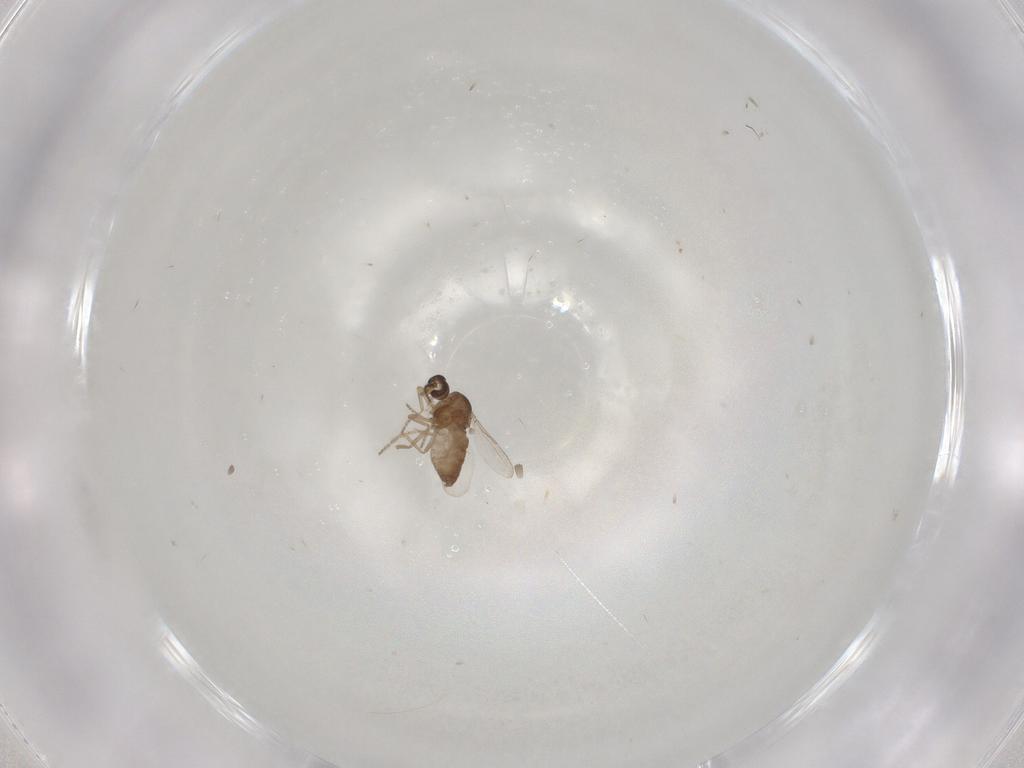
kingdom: Animalia
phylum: Arthropoda
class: Insecta
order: Diptera
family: Ceratopogonidae
